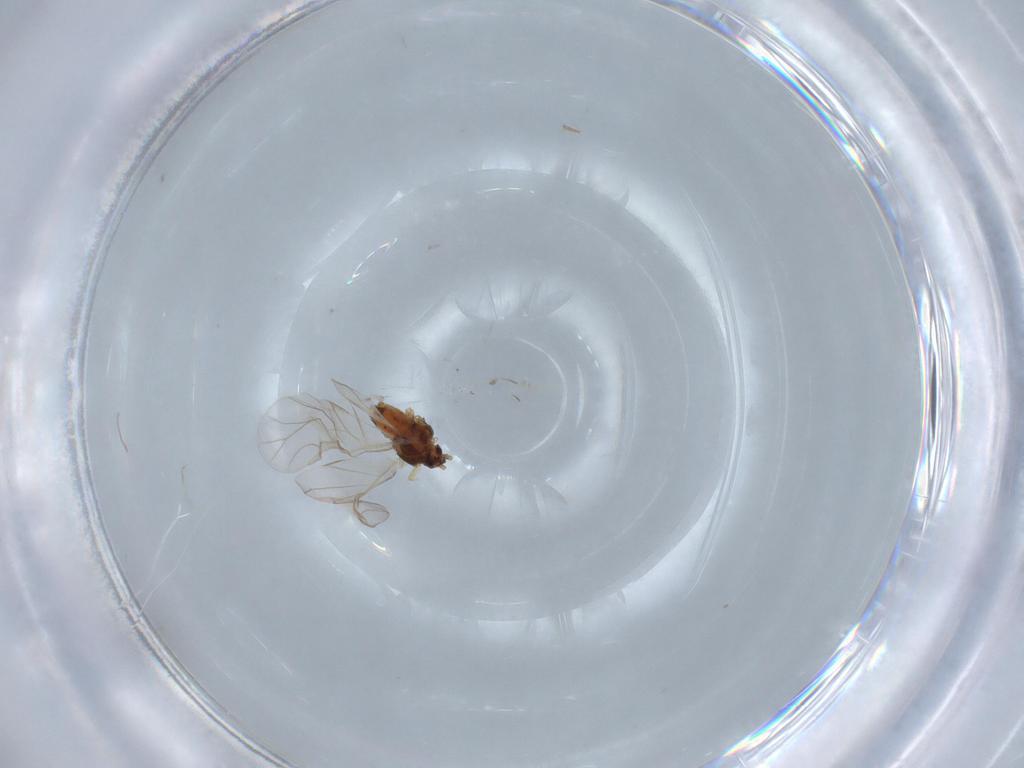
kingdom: Animalia
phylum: Arthropoda
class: Insecta
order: Hemiptera
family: Aphididae
